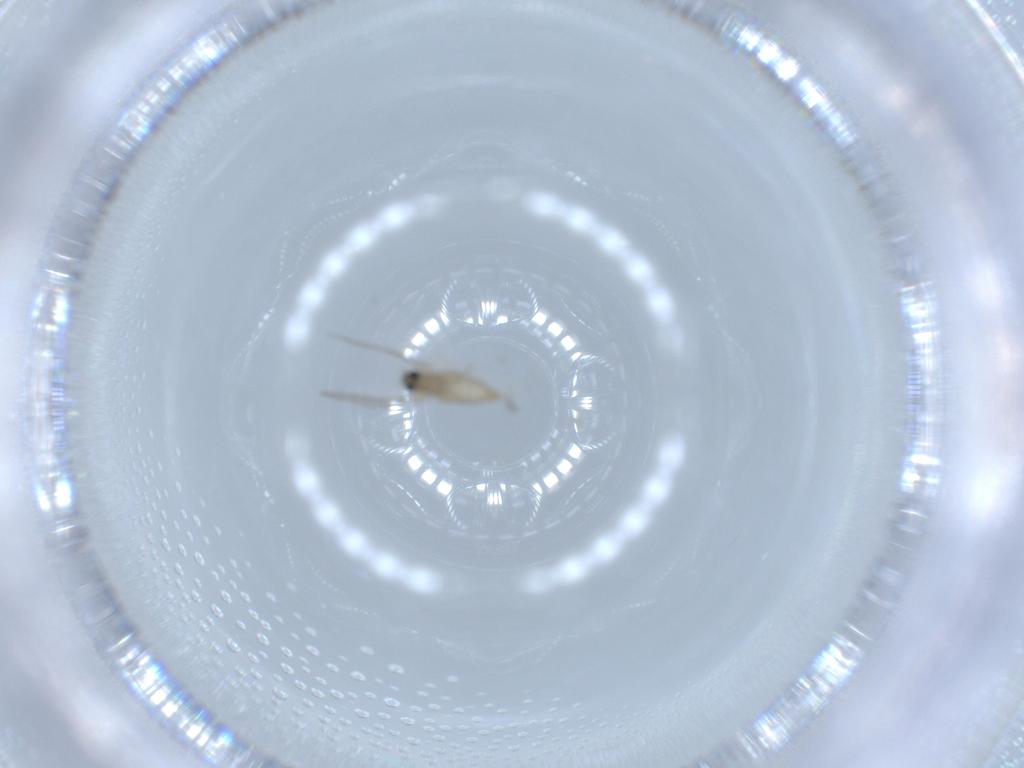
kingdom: Animalia
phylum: Arthropoda
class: Insecta
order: Diptera
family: Cecidomyiidae
